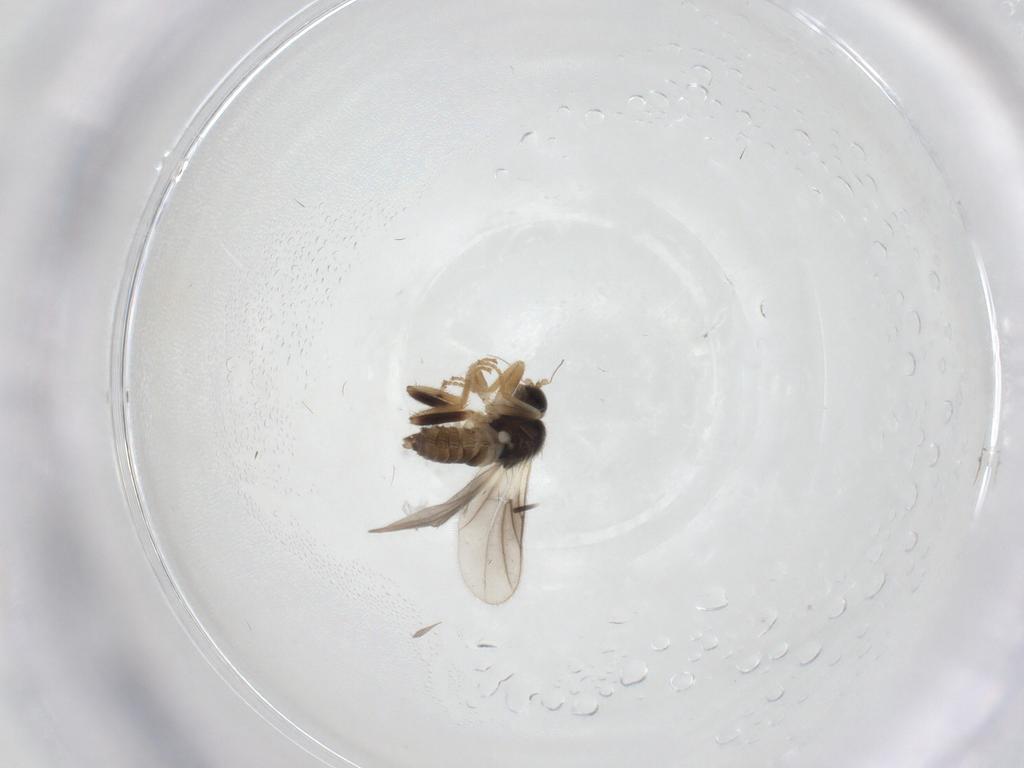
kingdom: Animalia
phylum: Arthropoda
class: Insecta
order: Diptera
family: Hybotidae
